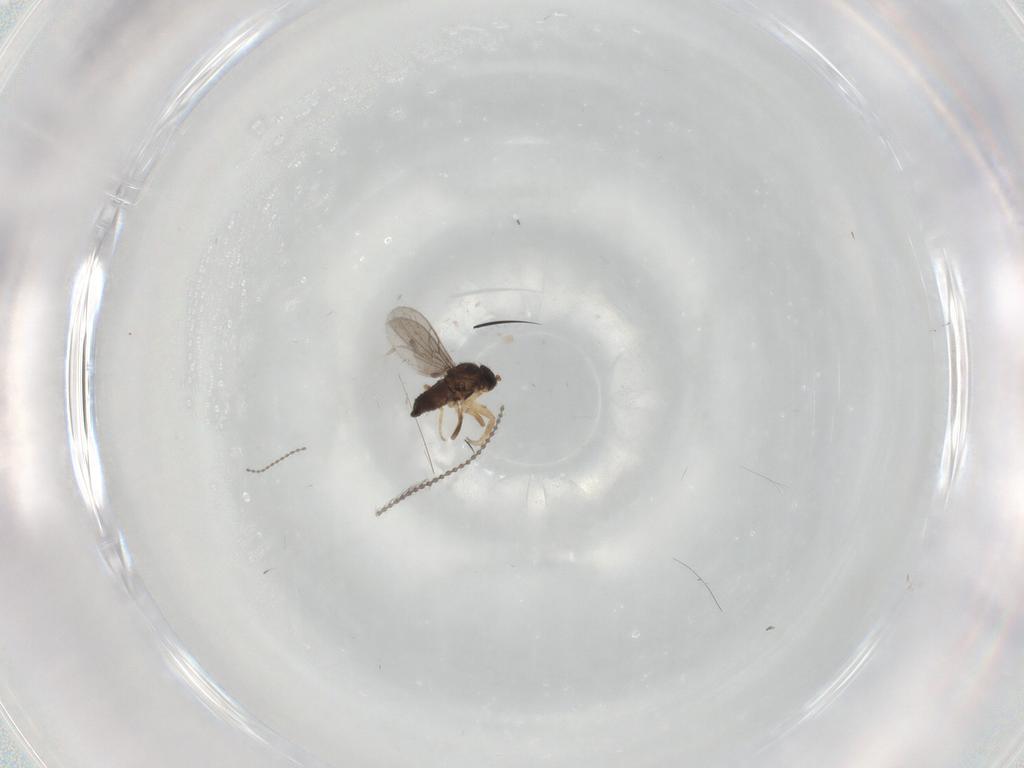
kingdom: Animalia
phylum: Arthropoda
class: Insecta
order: Diptera
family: Hybotidae
